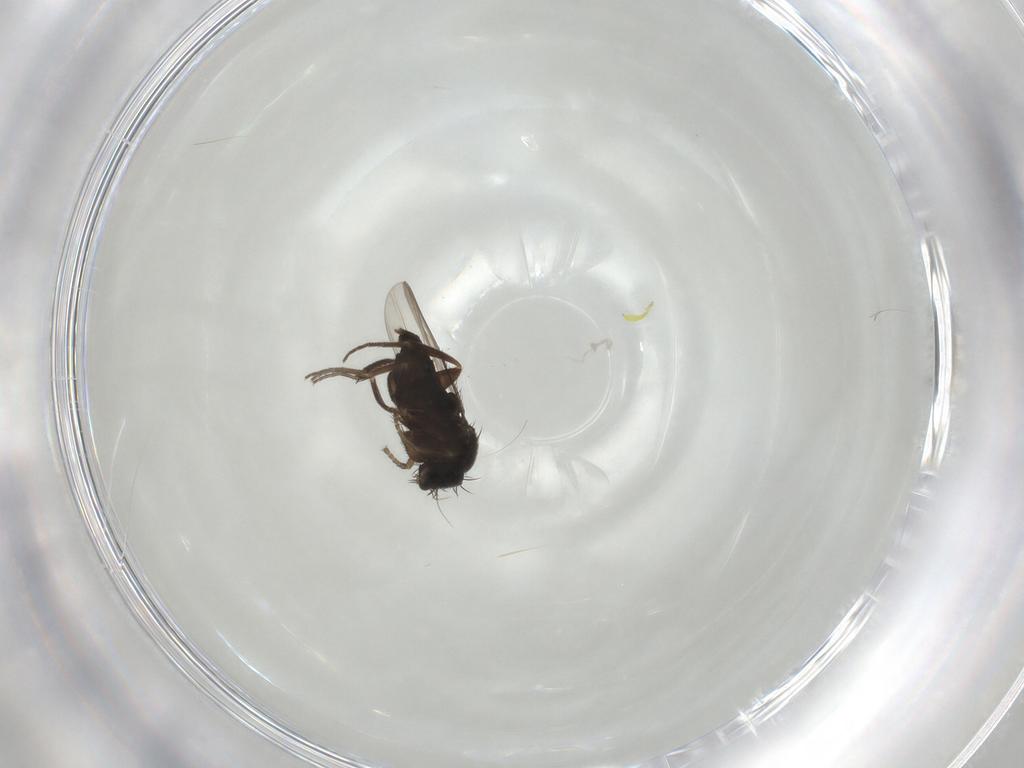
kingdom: Animalia
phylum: Arthropoda
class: Insecta
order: Diptera
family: Phoridae
